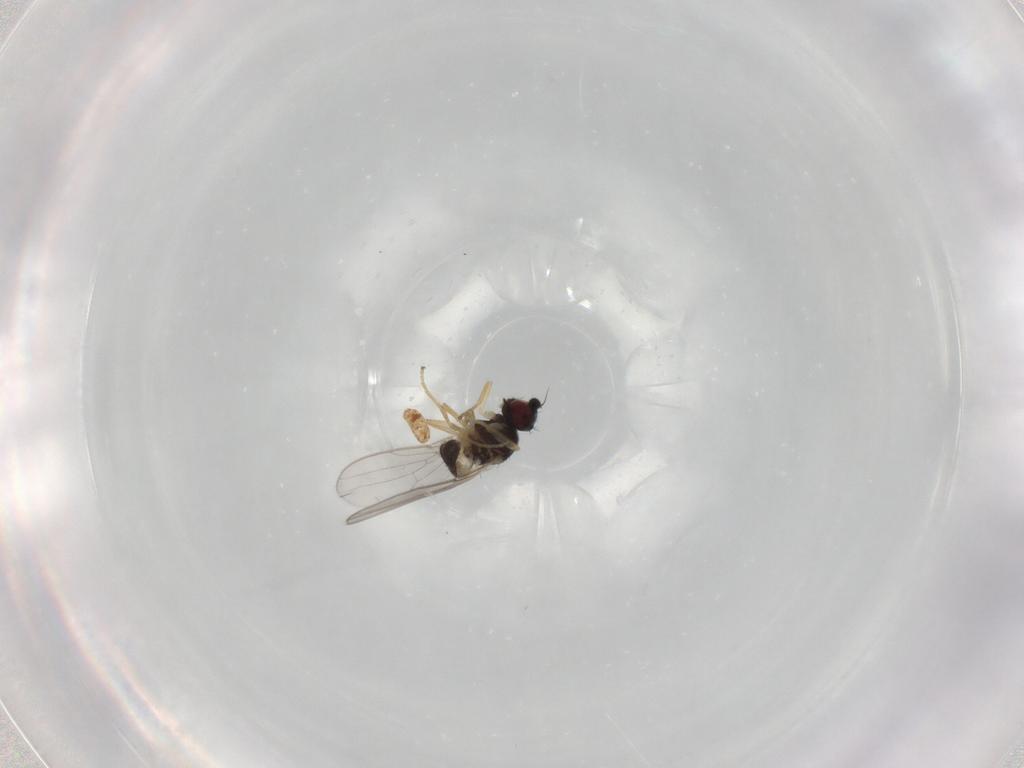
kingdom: Animalia
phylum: Arthropoda
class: Insecta
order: Diptera
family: Chloropidae
